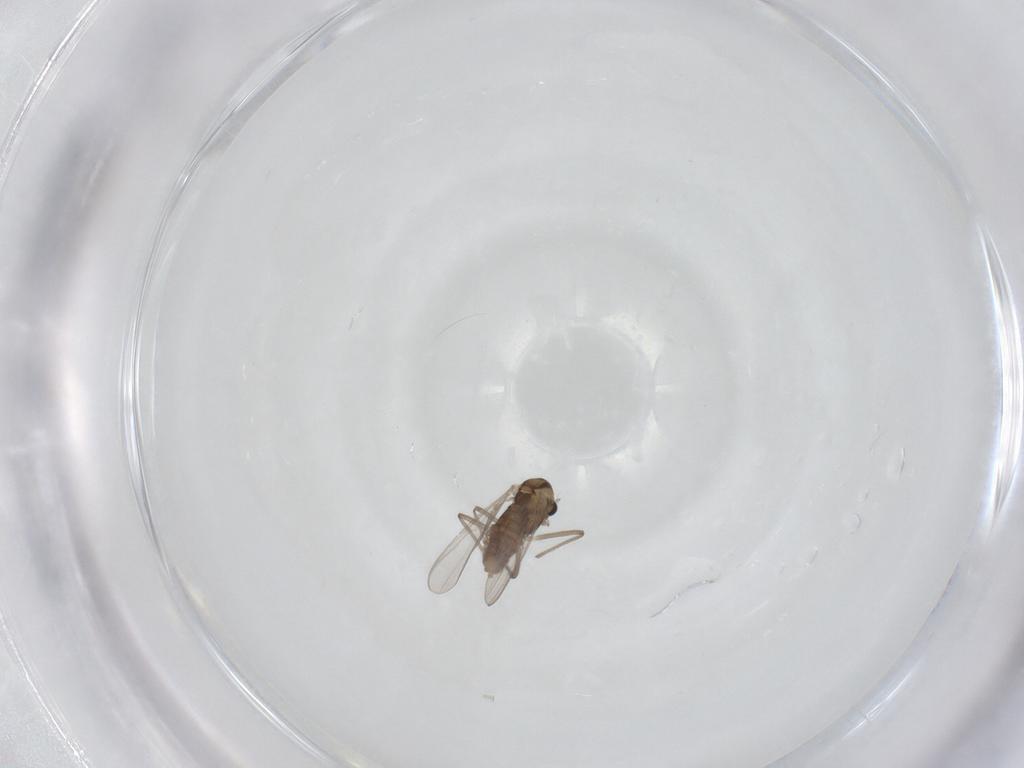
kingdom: Animalia
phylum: Arthropoda
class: Insecta
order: Diptera
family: Chironomidae
